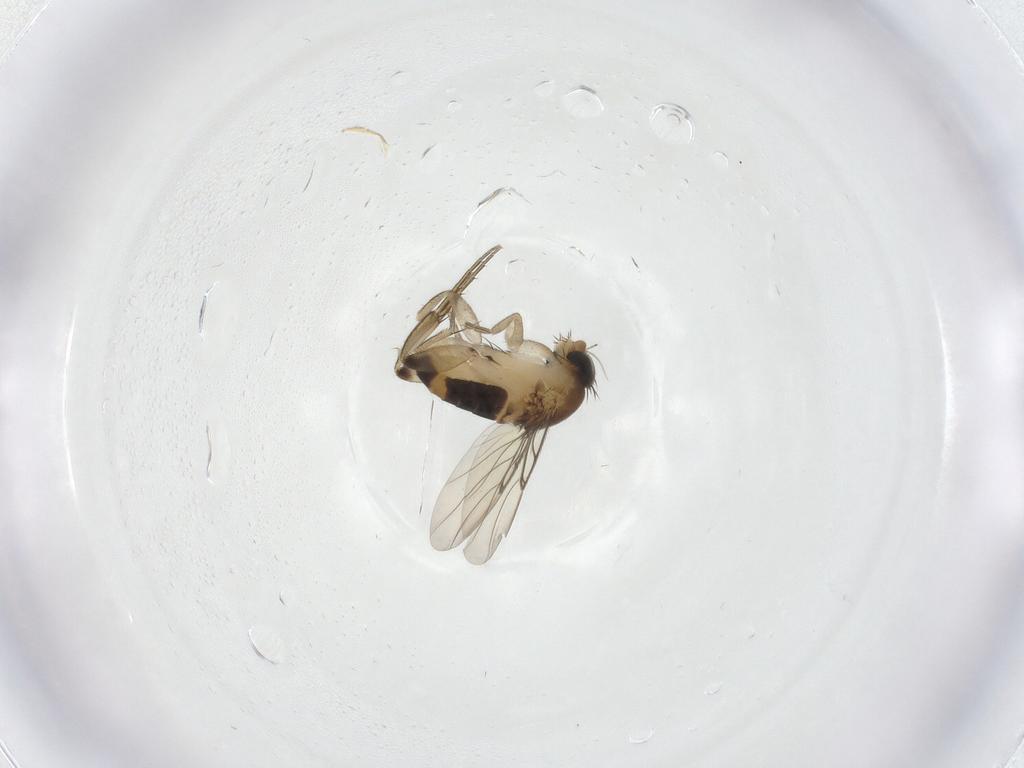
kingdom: Animalia
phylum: Arthropoda
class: Insecta
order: Diptera
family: Phoridae
